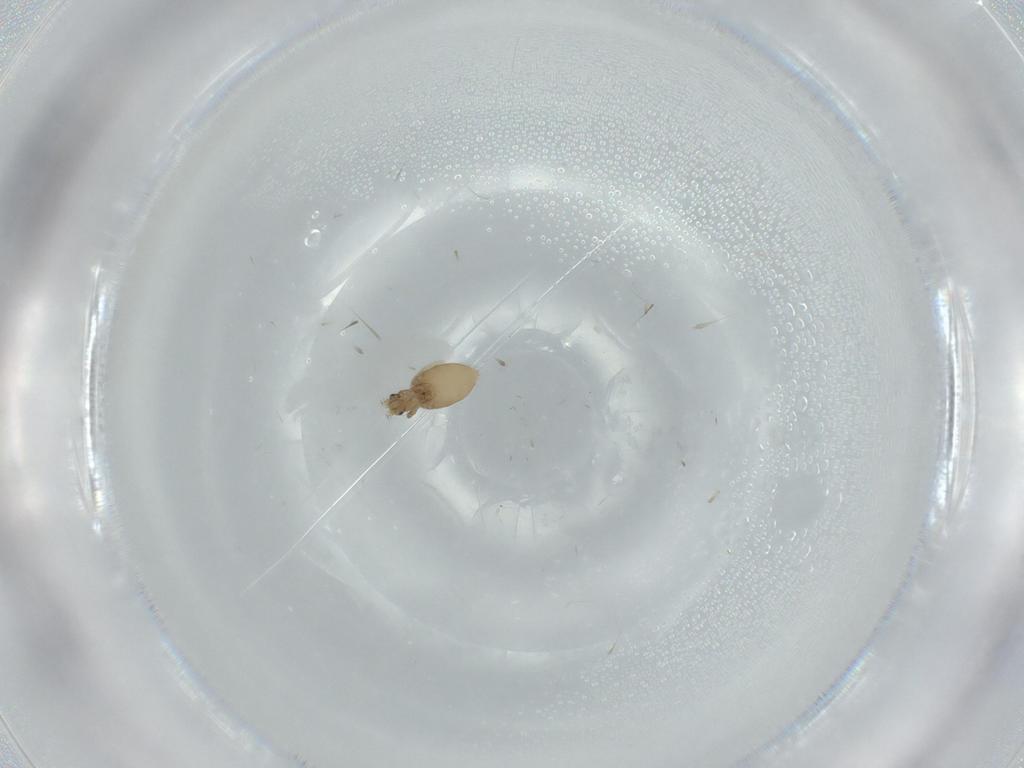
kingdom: Animalia
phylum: Arthropoda
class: Insecta
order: Diptera
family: Phoridae
